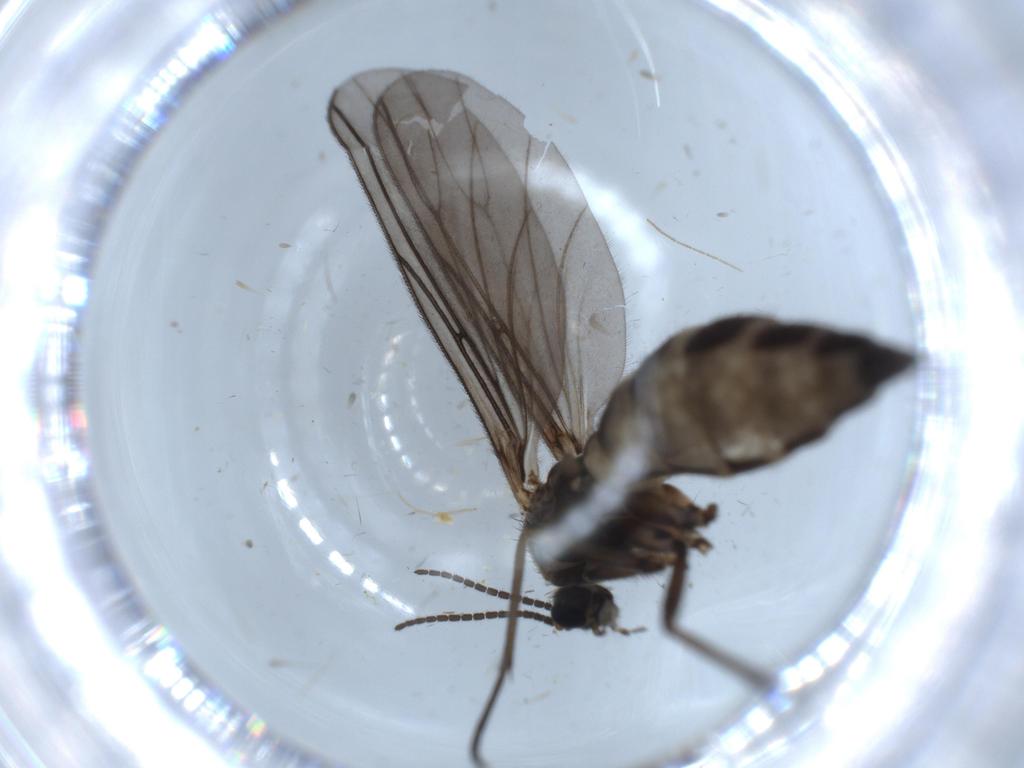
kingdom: Animalia
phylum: Arthropoda
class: Insecta
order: Diptera
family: Sciaridae
